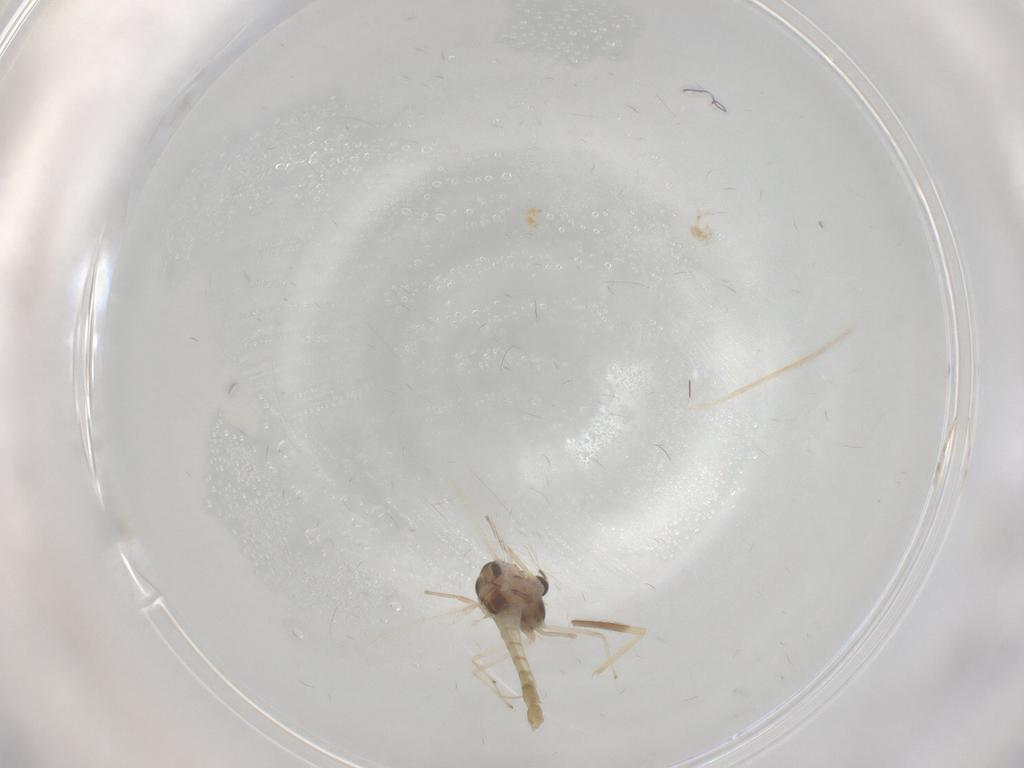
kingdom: Animalia
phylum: Arthropoda
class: Insecta
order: Diptera
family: Chironomidae
